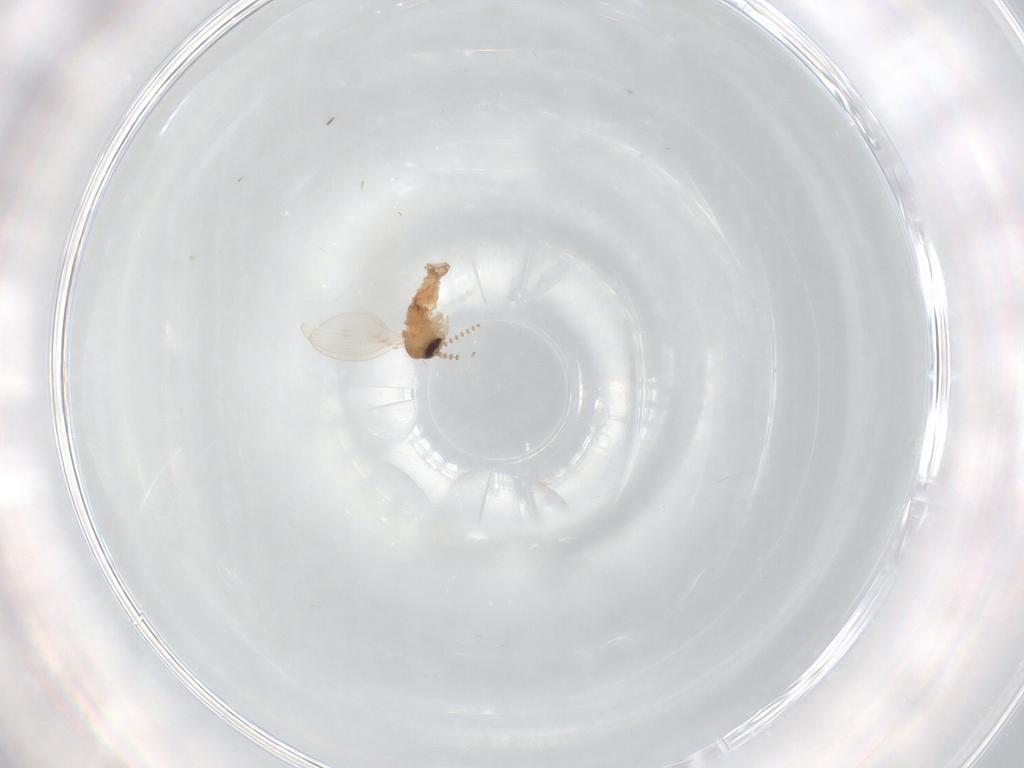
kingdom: Animalia
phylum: Arthropoda
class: Insecta
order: Diptera
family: Psychodidae
